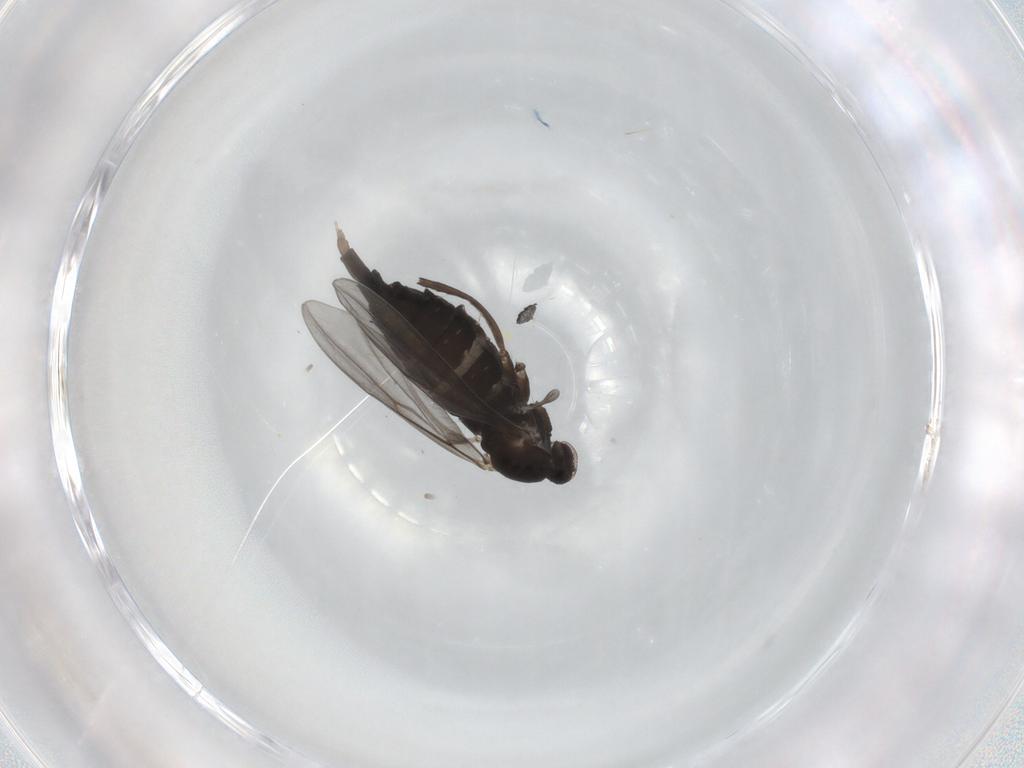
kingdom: Animalia
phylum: Arthropoda
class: Insecta
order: Diptera
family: Cecidomyiidae
